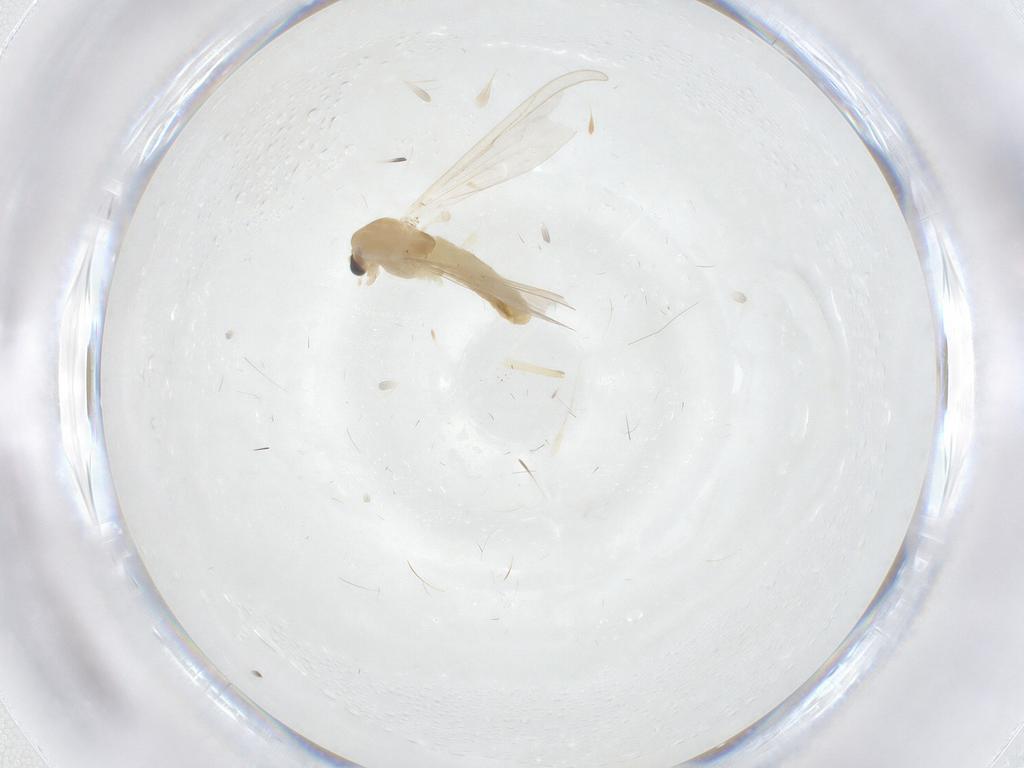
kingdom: Animalia
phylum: Arthropoda
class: Insecta
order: Diptera
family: Chironomidae
